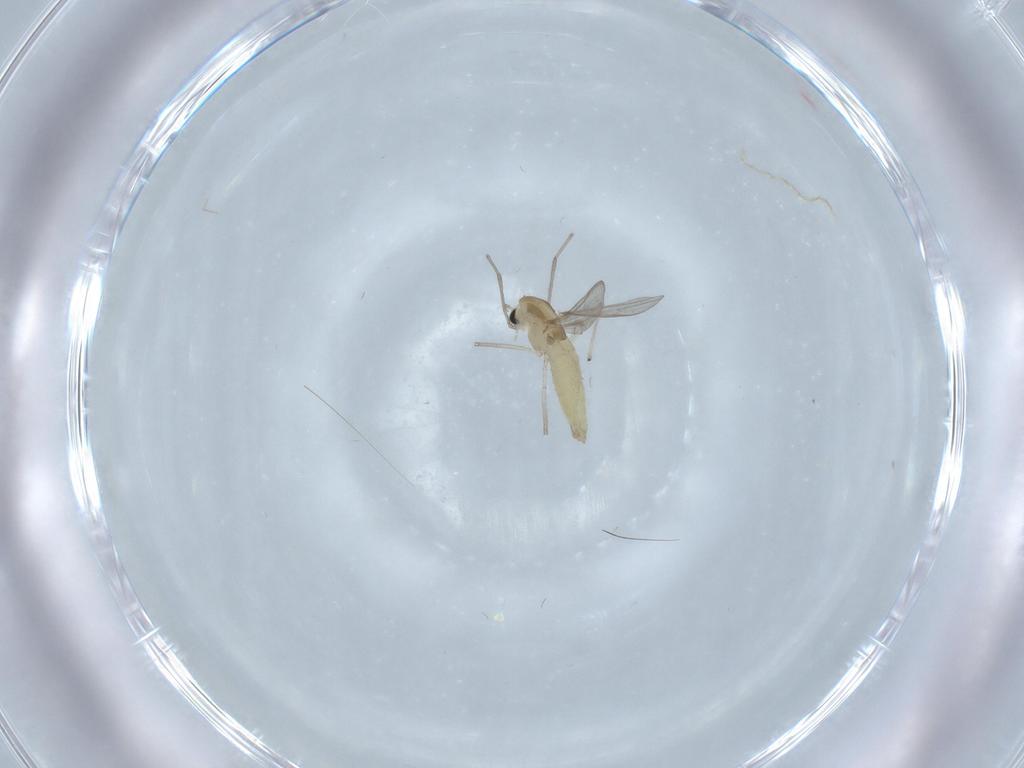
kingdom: Animalia
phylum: Arthropoda
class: Insecta
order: Diptera
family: Chironomidae
